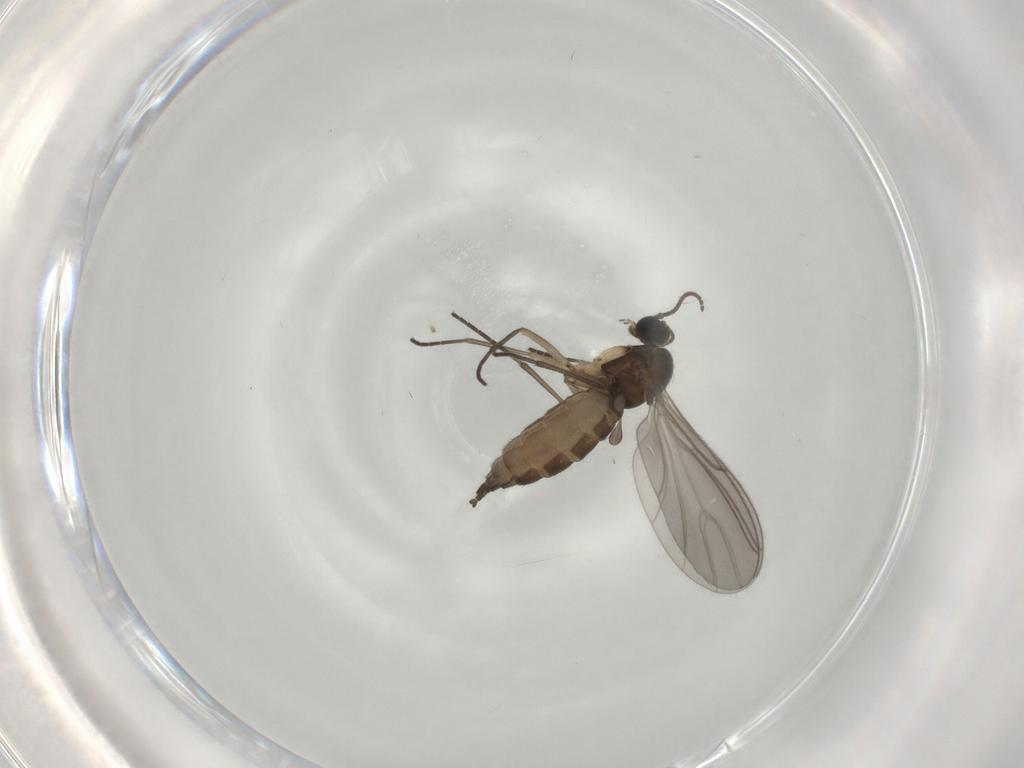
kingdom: Animalia
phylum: Arthropoda
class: Insecta
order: Diptera
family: Sciaridae
